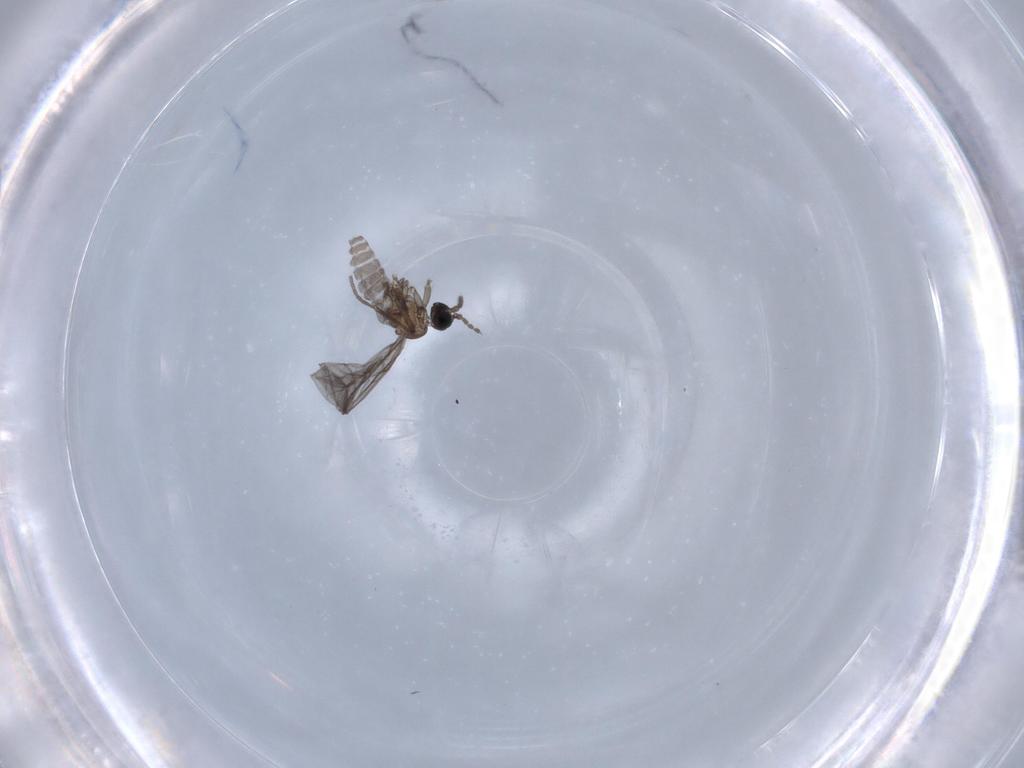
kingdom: Animalia
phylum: Arthropoda
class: Insecta
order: Diptera
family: Sciaridae
